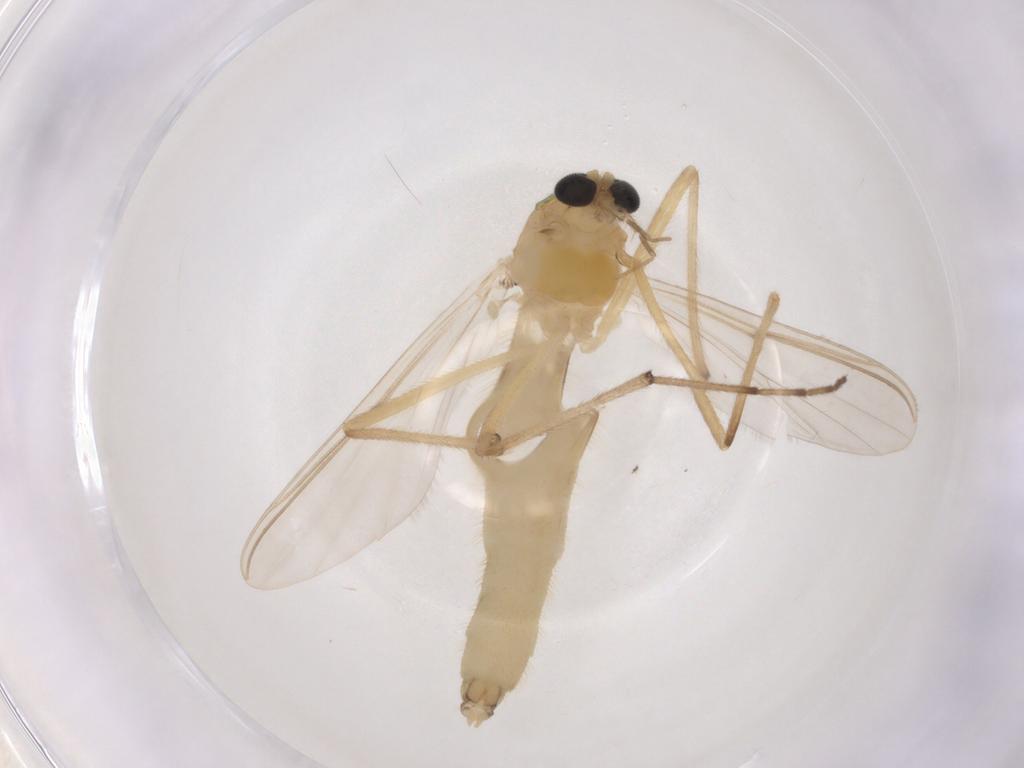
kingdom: Animalia
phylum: Arthropoda
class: Insecta
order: Diptera
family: Chironomidae
